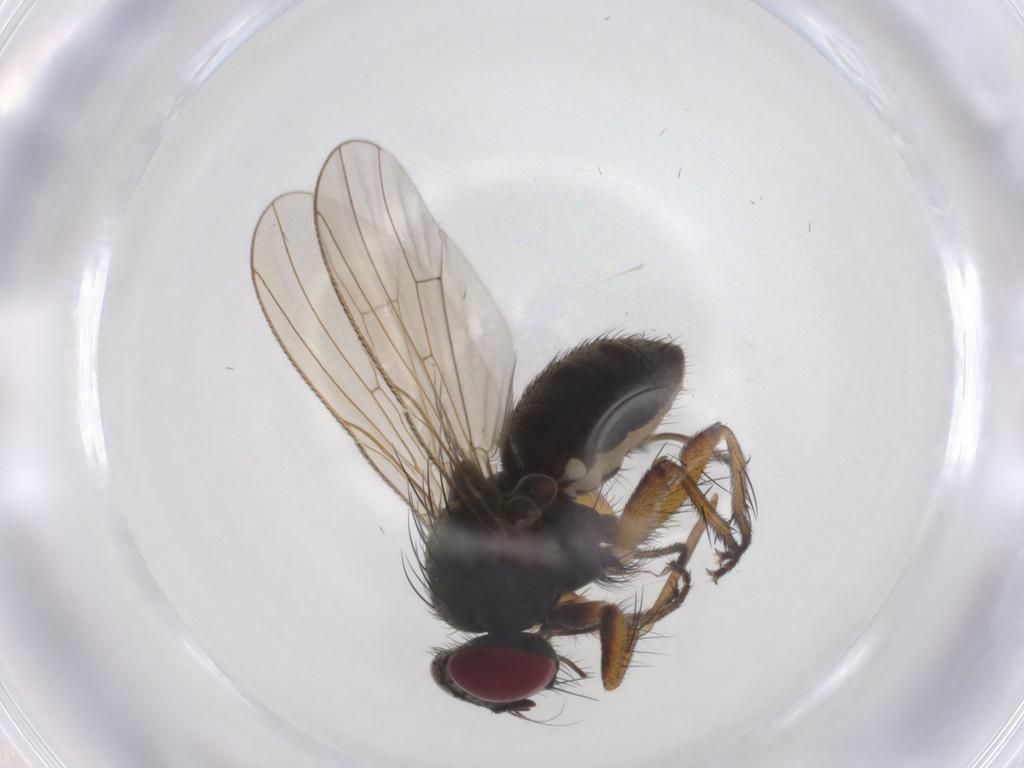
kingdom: Animalia
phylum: Arthropoda
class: Insecta
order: Diptera
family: Muscidae
